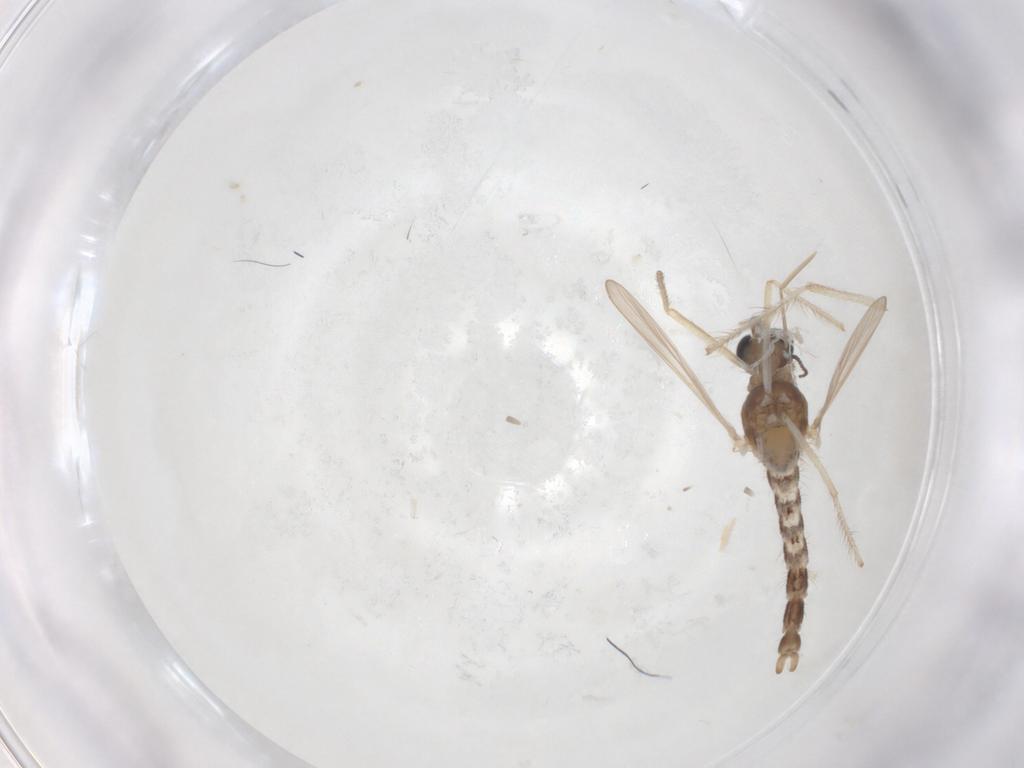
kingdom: Animalia
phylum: Arthropoda
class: Insecta
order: Diptera
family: Chironomidae
